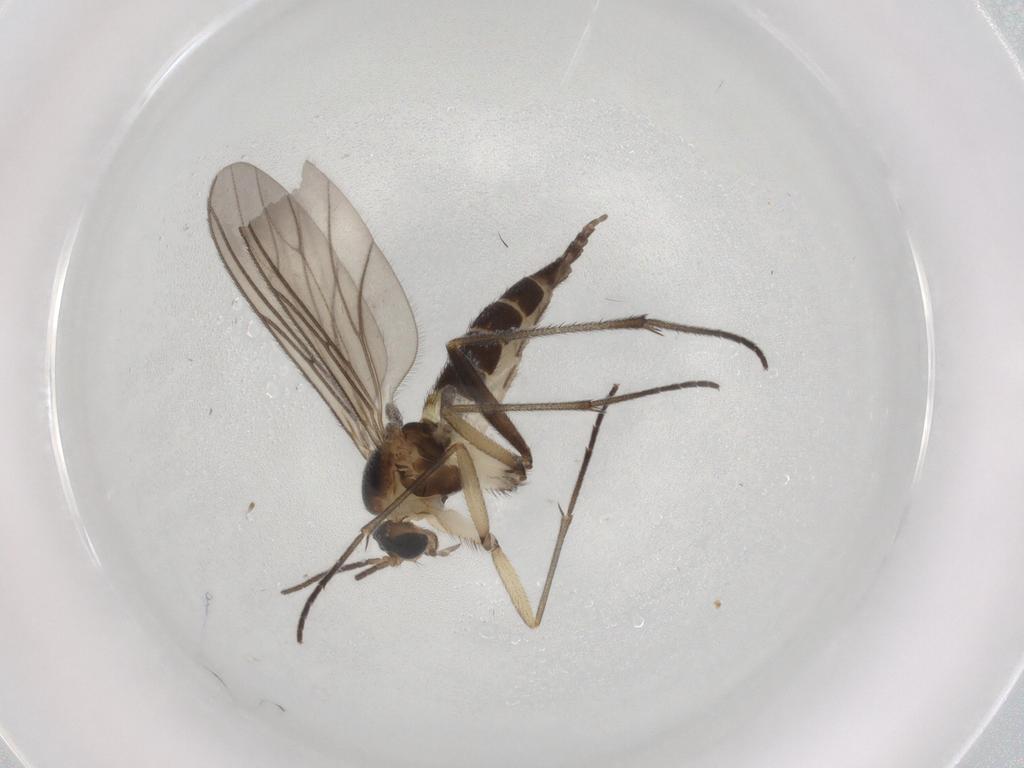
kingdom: Animalia
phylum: Arthropoda
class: Insecta
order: Diptera
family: Sciaridae
